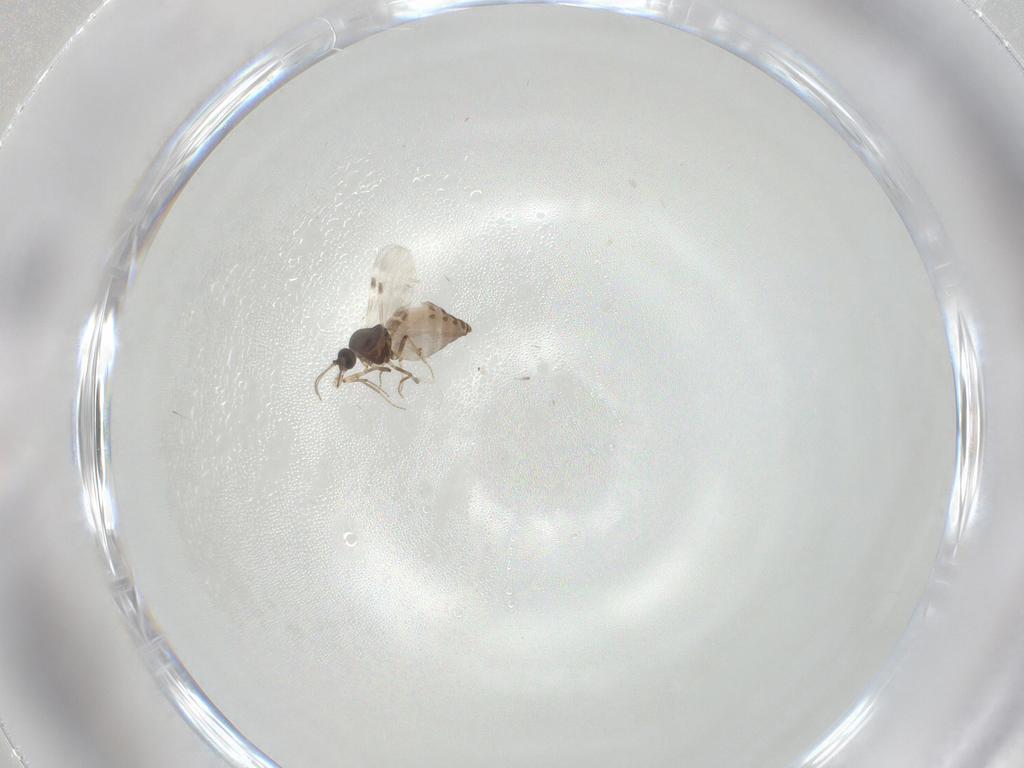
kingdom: Animalia
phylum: Arthropoda
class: Insecta
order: Diptera
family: Ceratopogonidae
